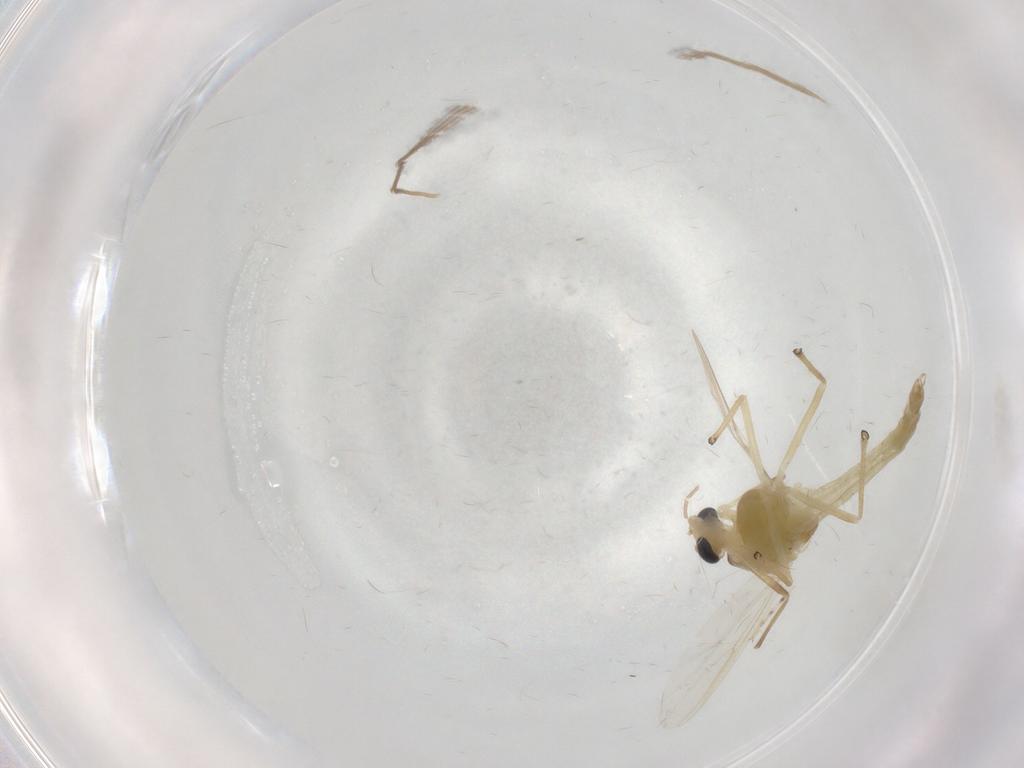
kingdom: Animalia
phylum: Arthropoda
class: Insecta
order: Diptera
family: Chironomidae
